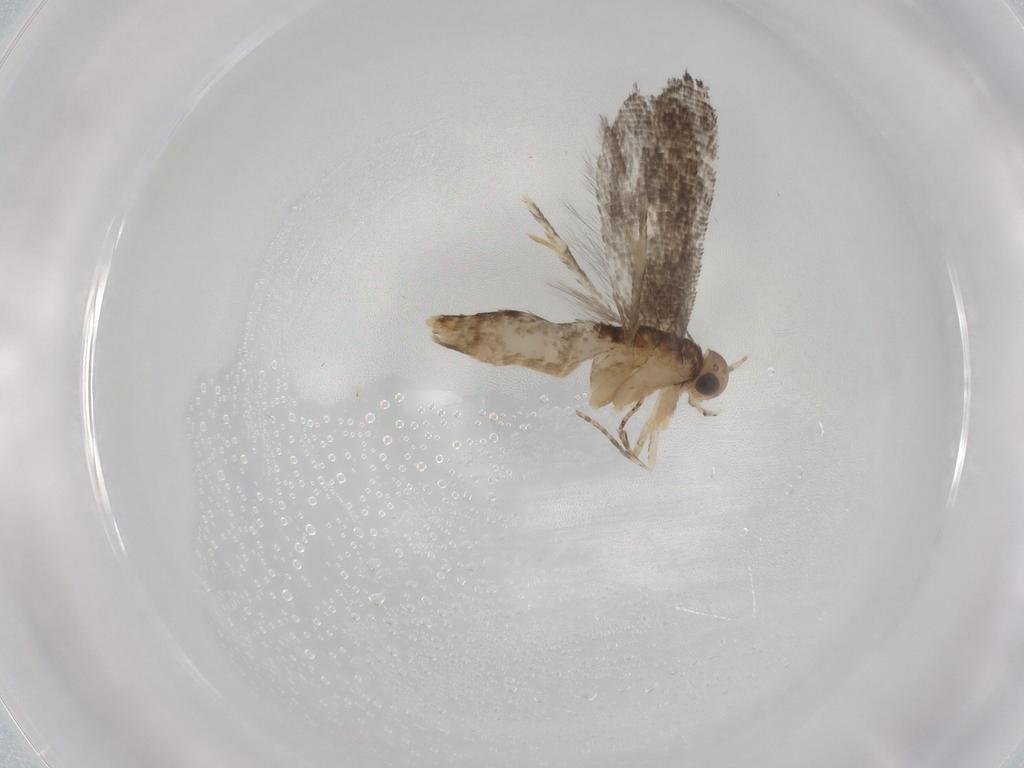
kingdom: Animalia
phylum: Arthropoda
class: Insecta
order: Lepidoptera
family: Glyphipterigidae
